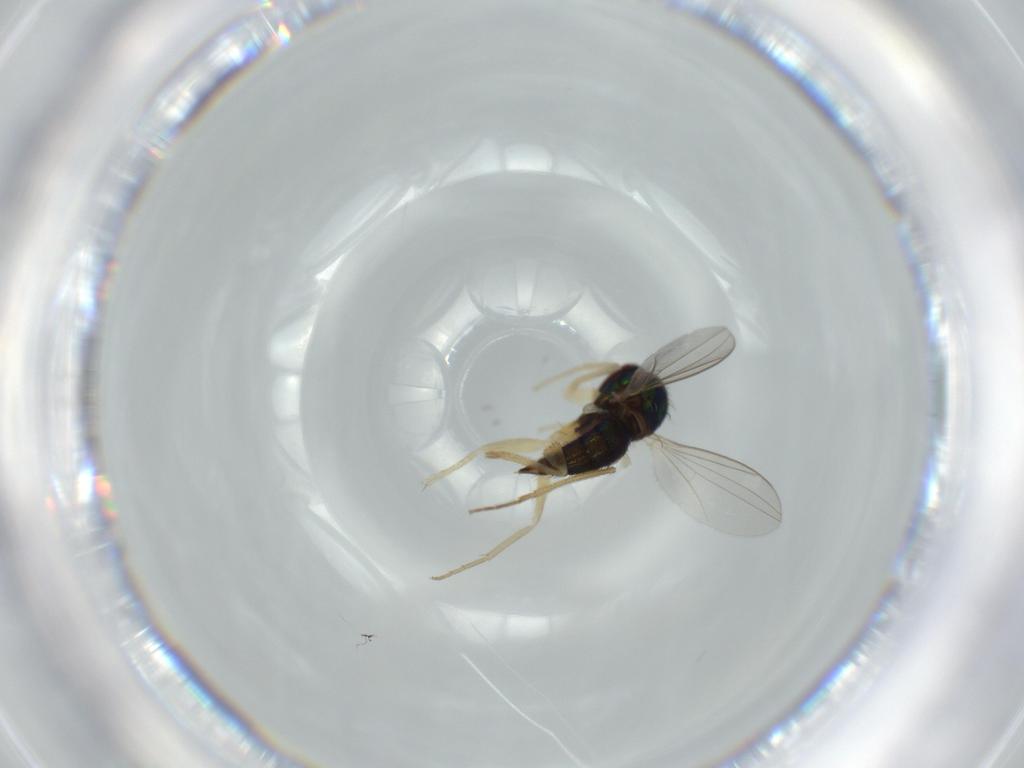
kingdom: Animalia
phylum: Arthropoda
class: Insecta
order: Diptera
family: Dolichopodidae
